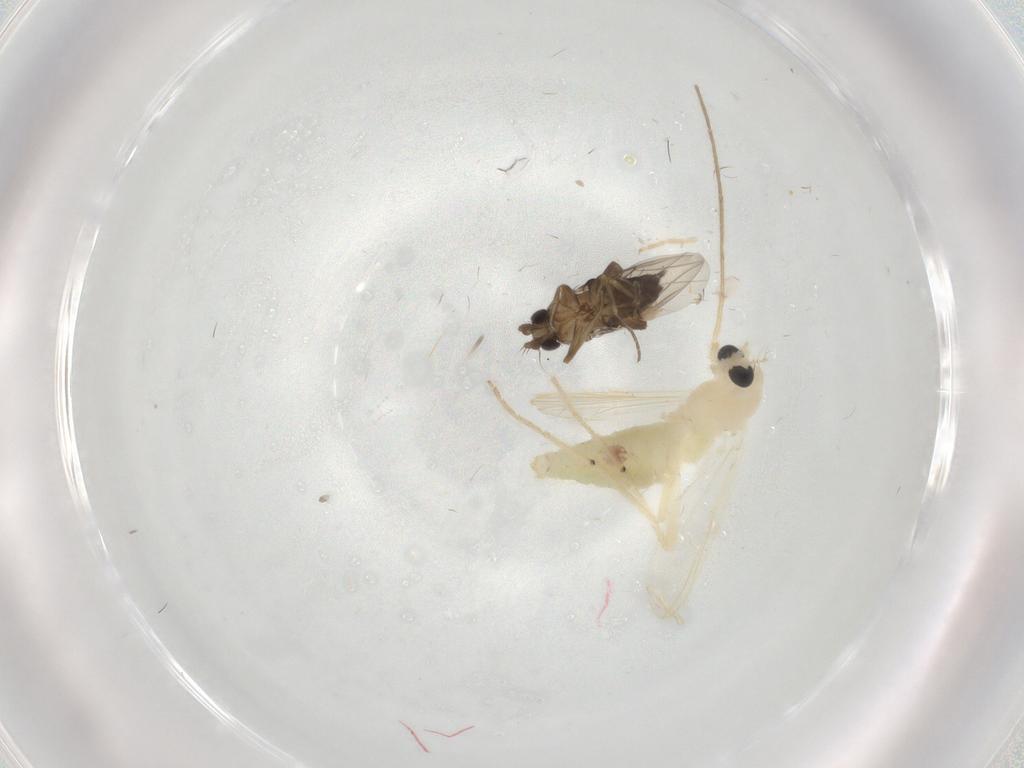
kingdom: Animalia
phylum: Arthropoda
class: Insecta
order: Diptera
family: Chironomidae
